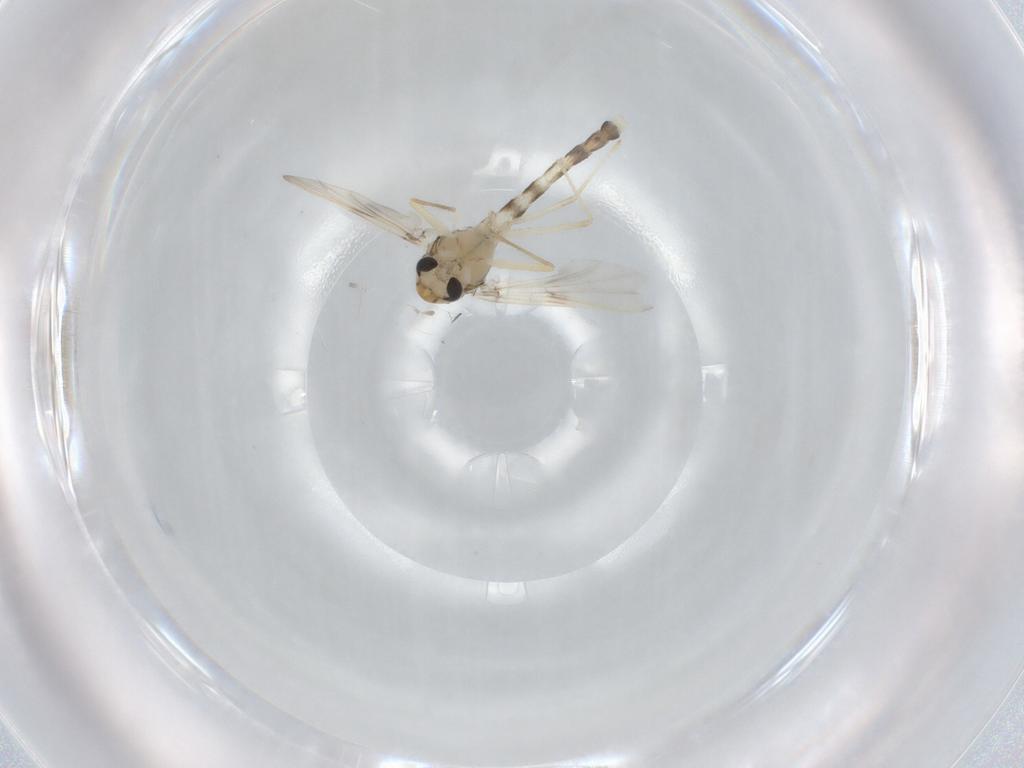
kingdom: Animalia
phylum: Arthropoda
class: Insecta
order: Diptera
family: Chironomidae
